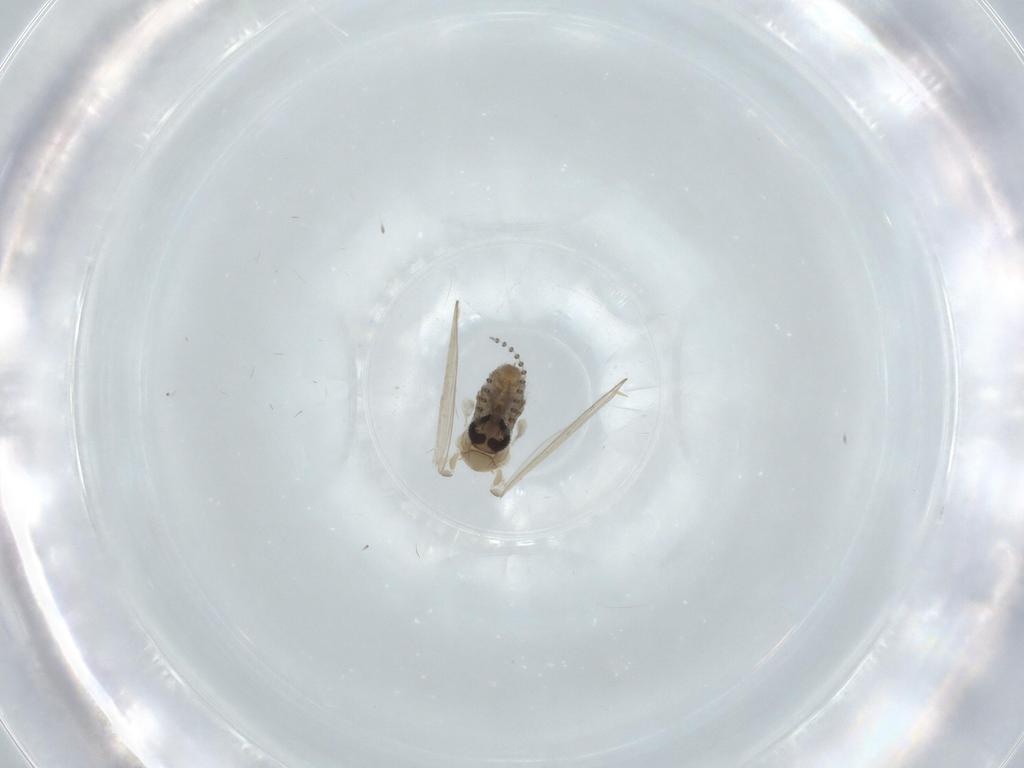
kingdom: Animalia
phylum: Arthropoda
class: Insecta
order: Diptera
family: Psychodidae
